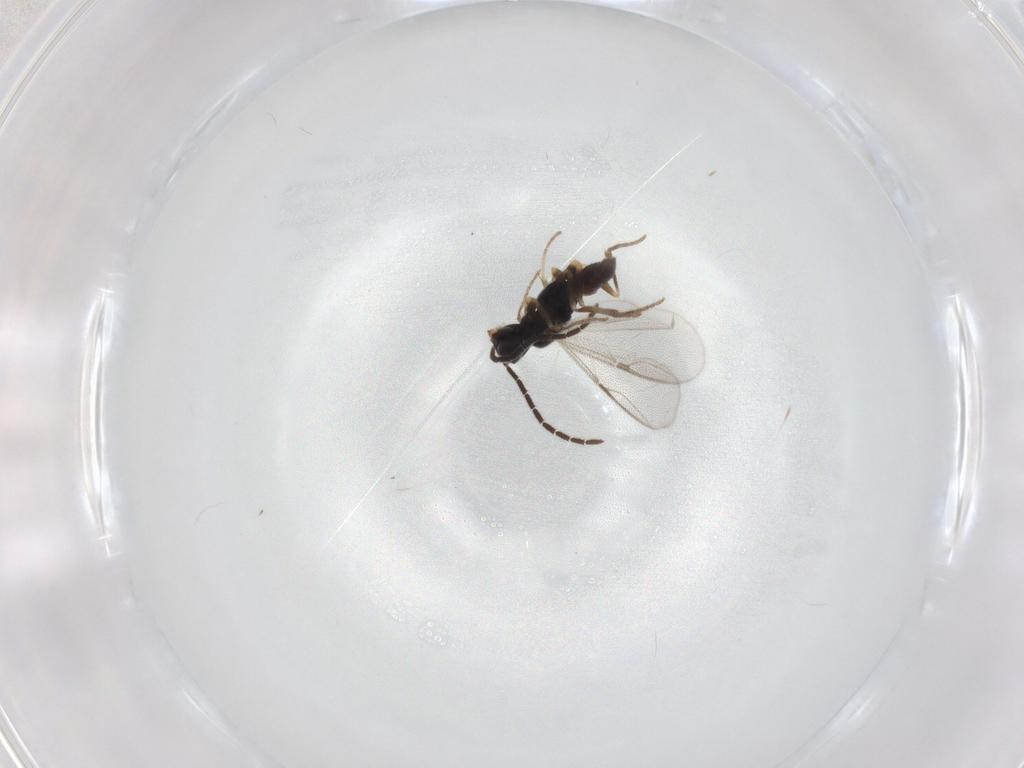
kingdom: Animalia
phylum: Arthropoda
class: Insecta
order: Hymenoptera
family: Dryinidae
